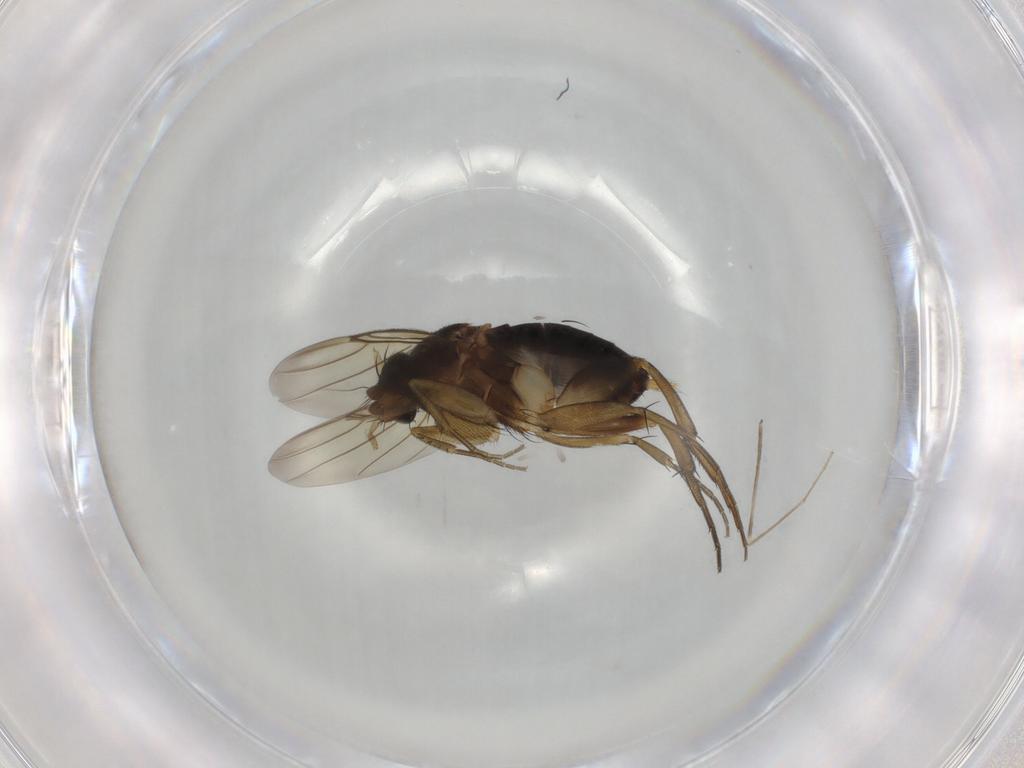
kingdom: Animalia
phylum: Arthropoda
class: Insecta
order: Diptera
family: Phoridae
